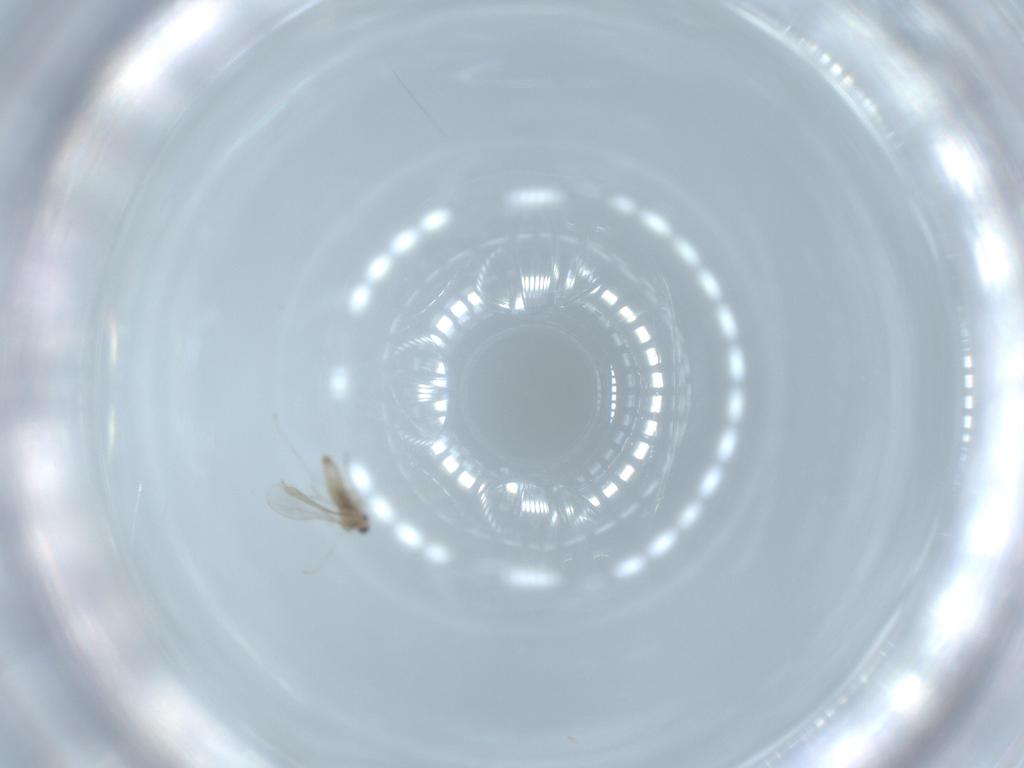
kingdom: Animalia
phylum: Arthropoda
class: Insecta
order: Diptera
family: Cecidomyiidae
